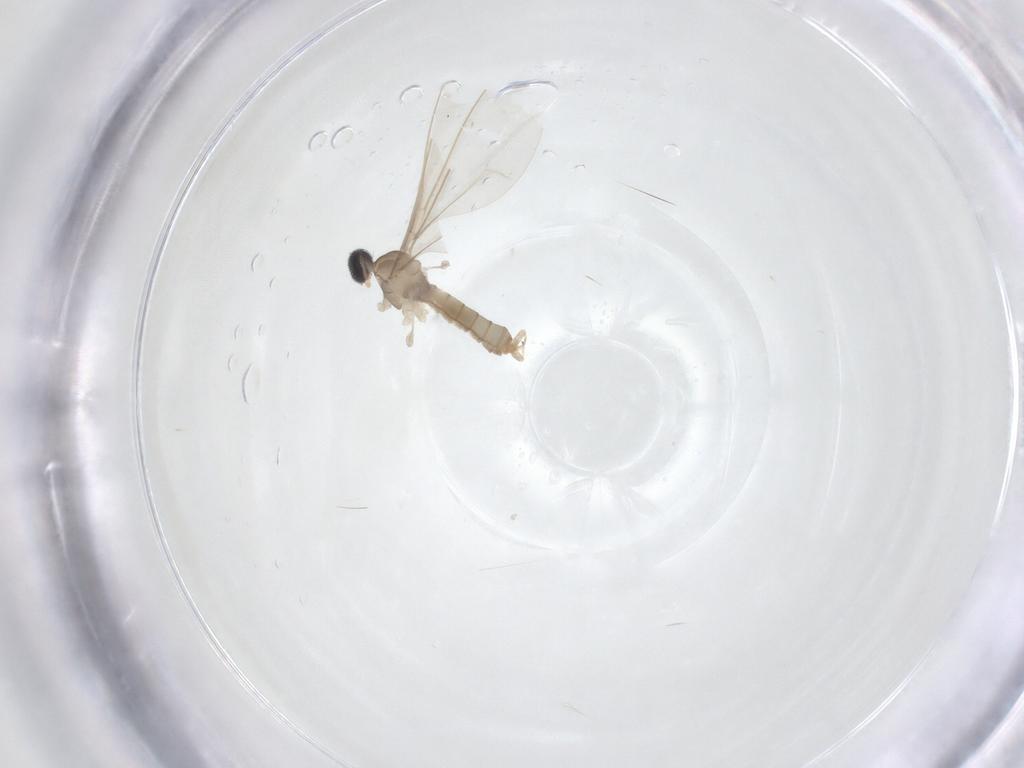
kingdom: Animalia
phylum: Arthropoda
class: Insecta
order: Diptera
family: Cecidomyiidae
